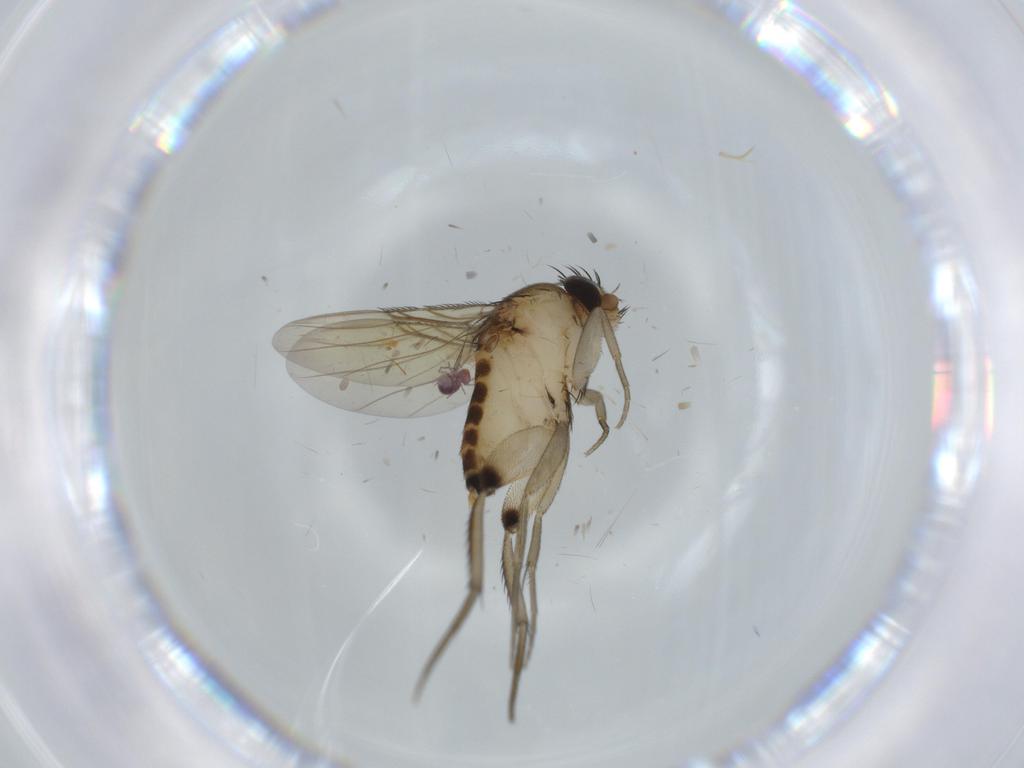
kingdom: Animalia
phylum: Arthropoda
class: Insecta
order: Diptera
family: Phoridae
